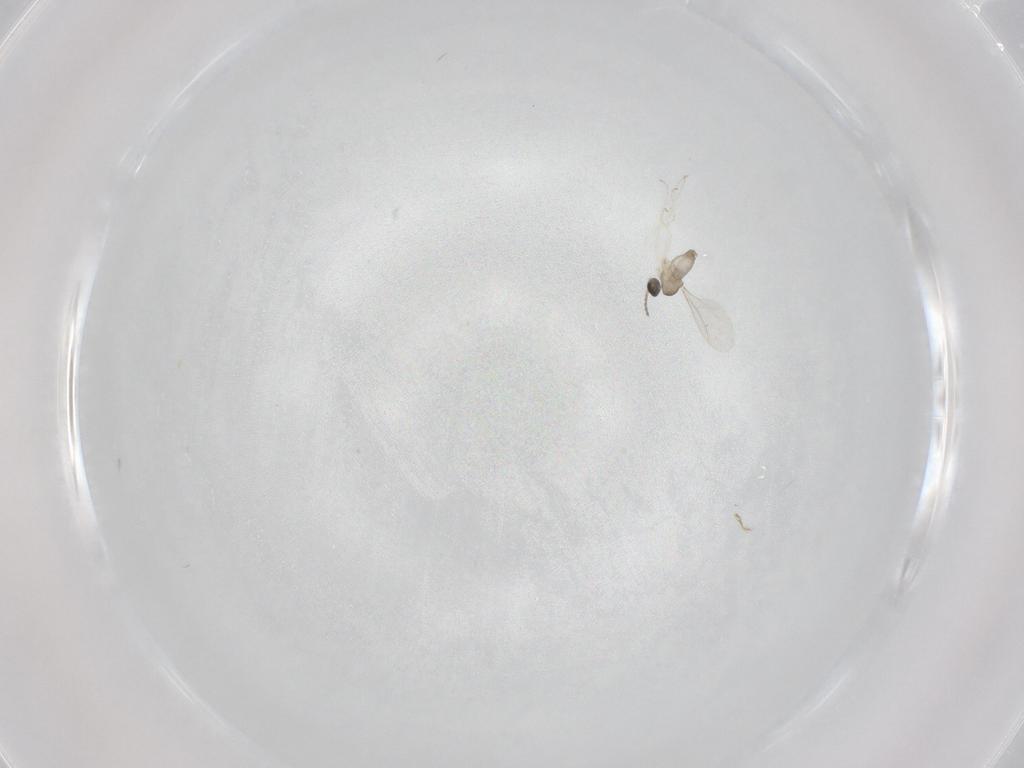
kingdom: Animalia
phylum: Arthropoda
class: Insecta
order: Diptera
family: Cecidomyiidae
